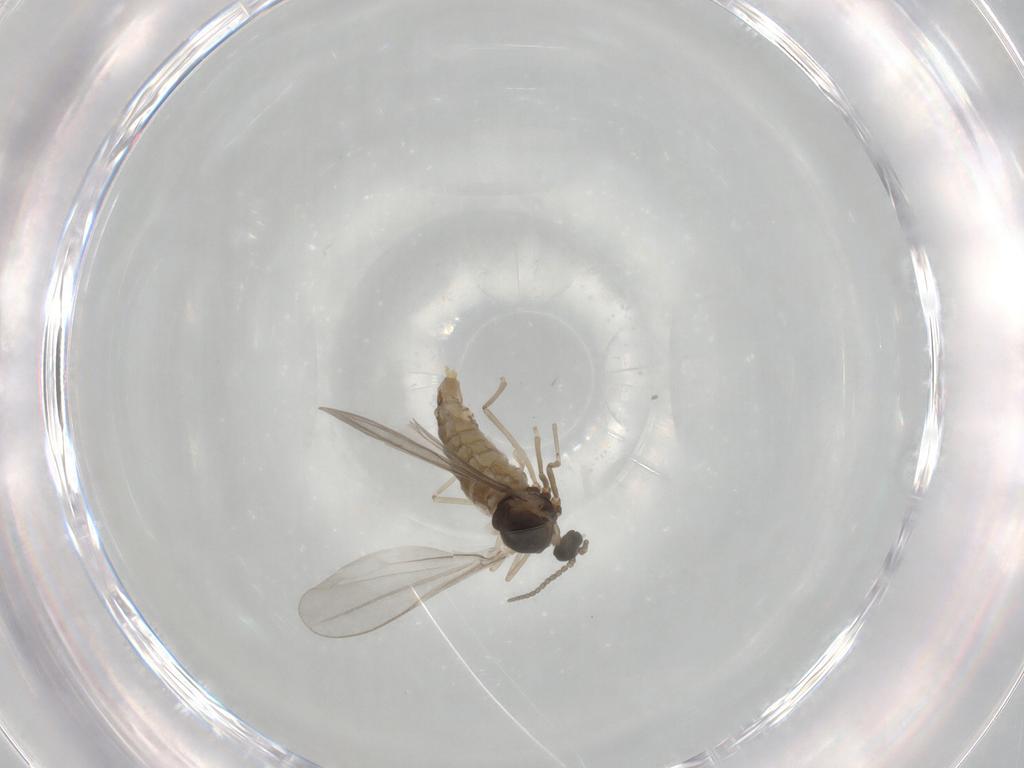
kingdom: Animalia
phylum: Arthropoda
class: Insecta
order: Diptera
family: Cecidomyiidae
